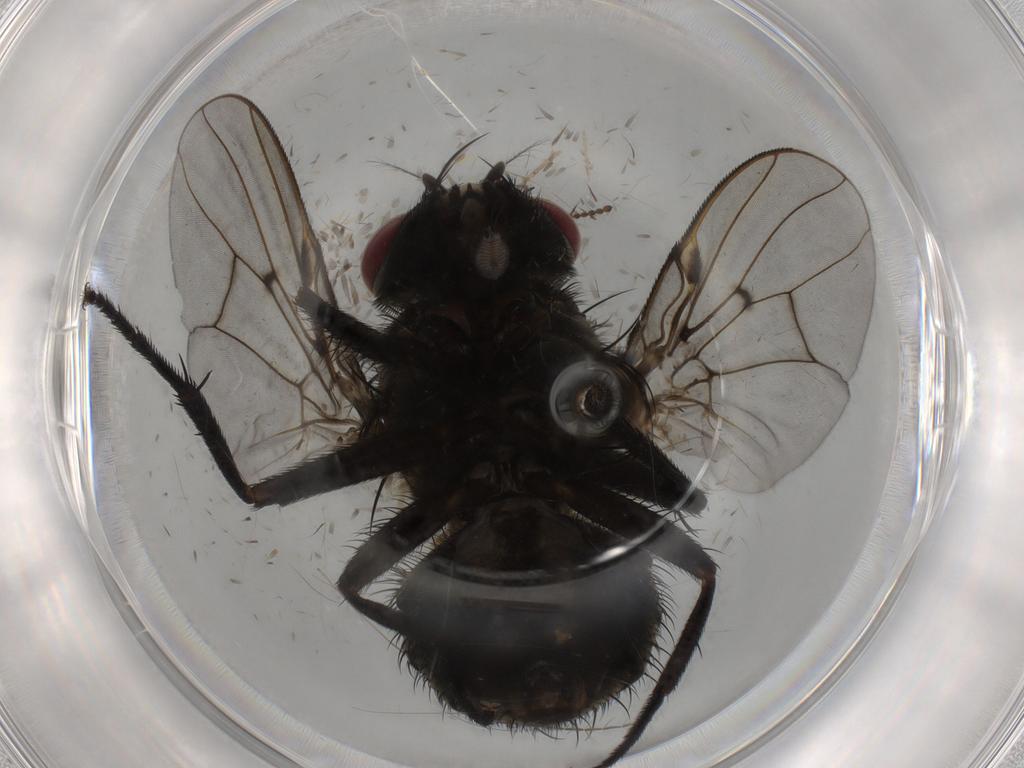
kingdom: Animalia
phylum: Arthropoda
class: Insecta
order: Diptera
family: Muscidae
